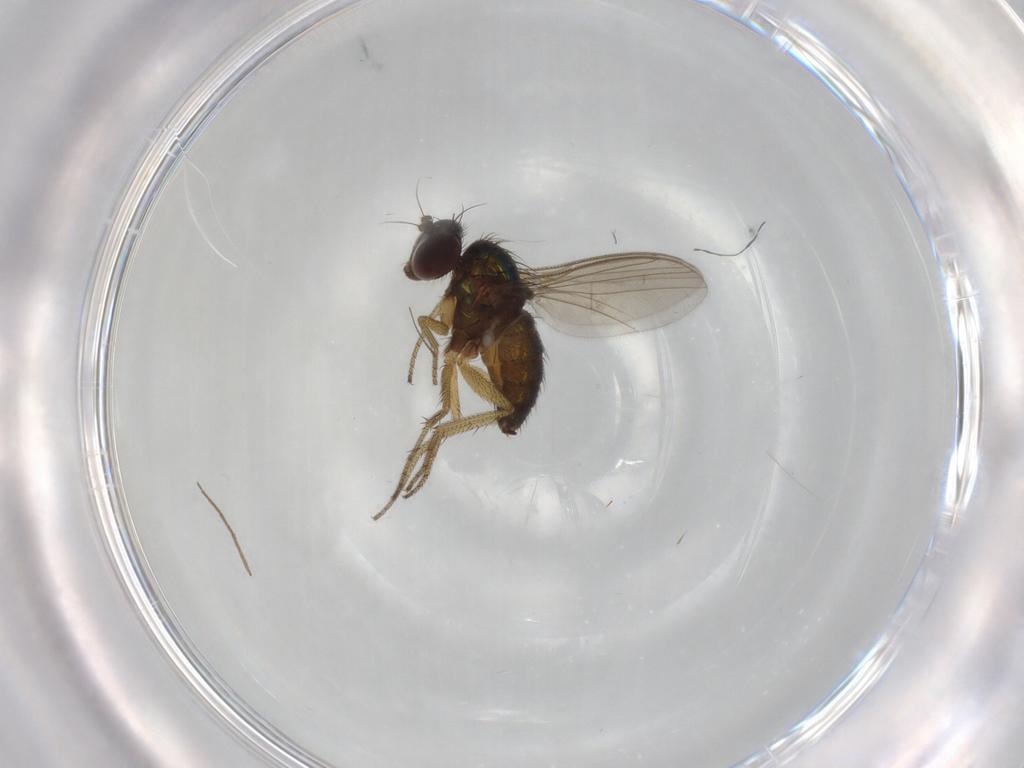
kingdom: Animalia
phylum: Arthropoda
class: Insecta
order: Diptera
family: Dolichopodidae
